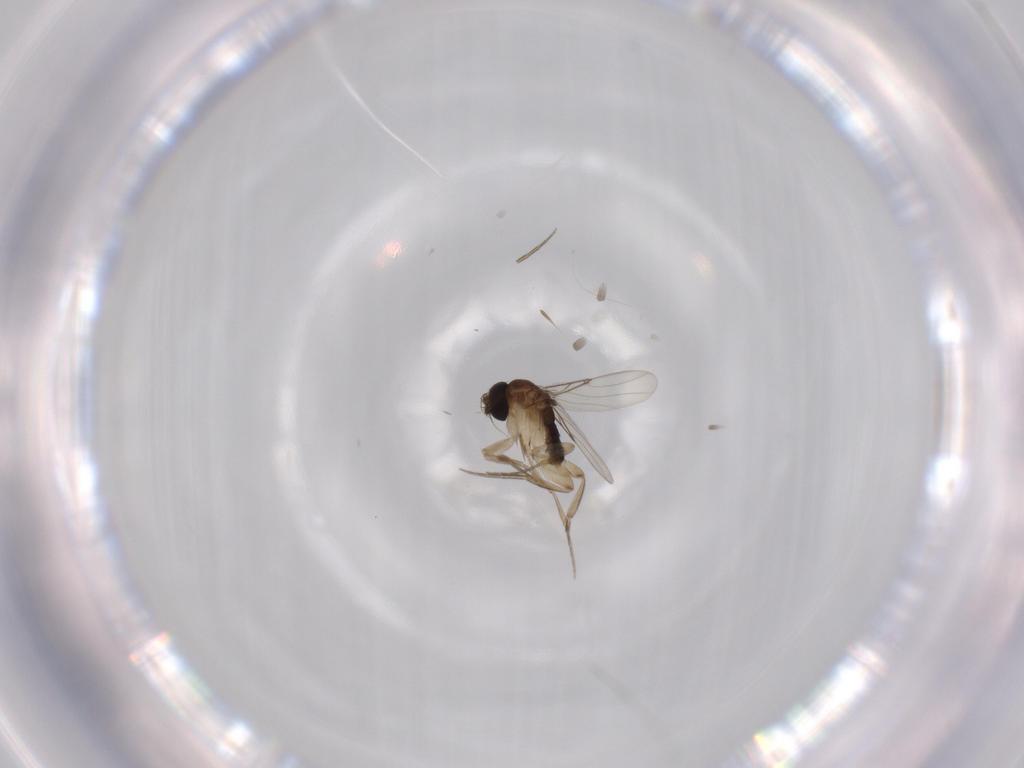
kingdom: Animalia
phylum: Arthropoda
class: Insecta
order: Diptera
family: Phoridae
